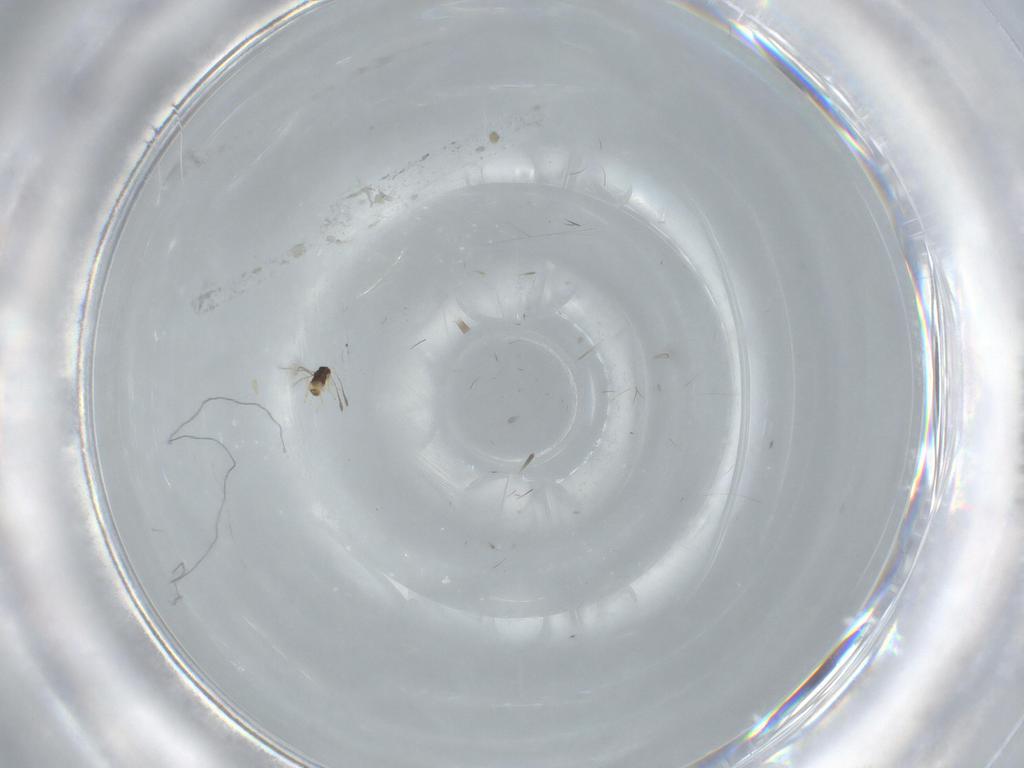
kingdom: Animalia
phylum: Arthropoda
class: Insecta
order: Hymenoptera
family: Mymaridae
